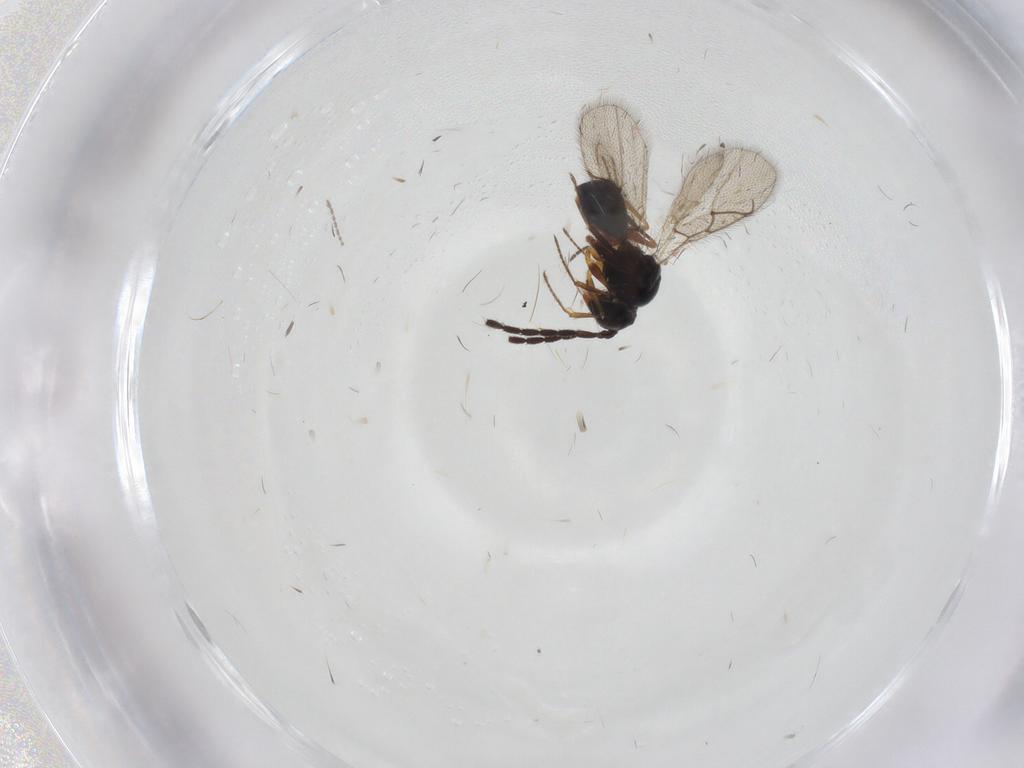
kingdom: Animalia
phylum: Arthropoda
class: Insecta
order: Hymenoptera
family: Figitidae
